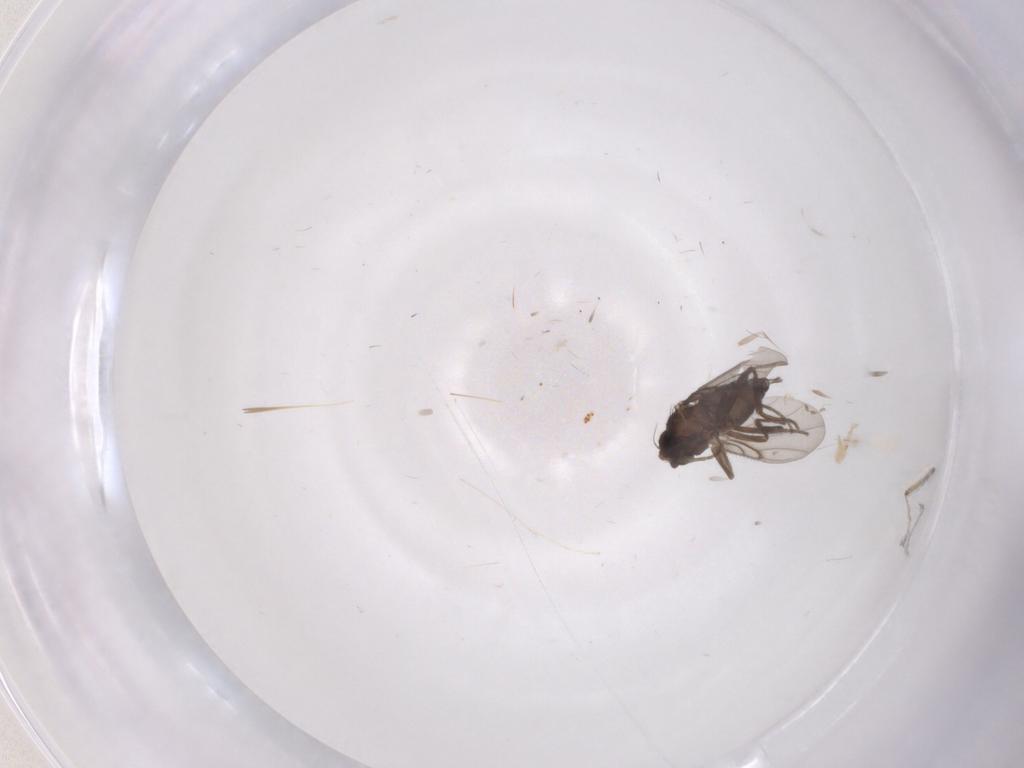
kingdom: Animalia
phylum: Arthropoda
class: Insecta
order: Diptera
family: Phoridae
